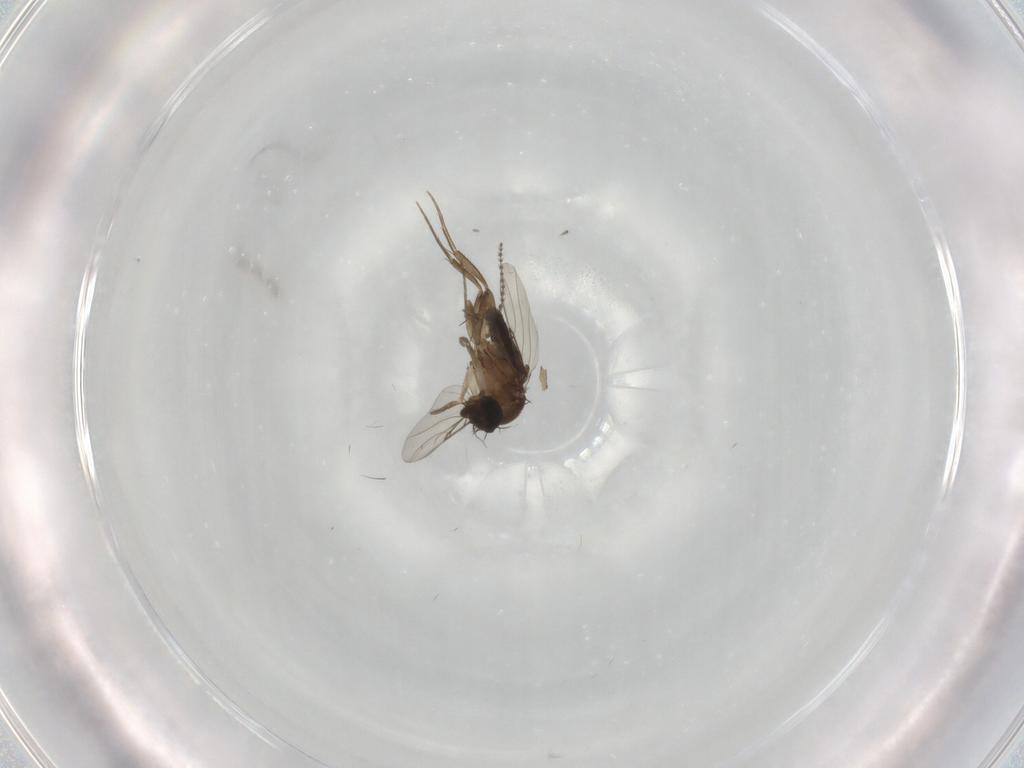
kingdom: Animalia
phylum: Arthropoda
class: Insecta
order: Diptera
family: Phoridae
